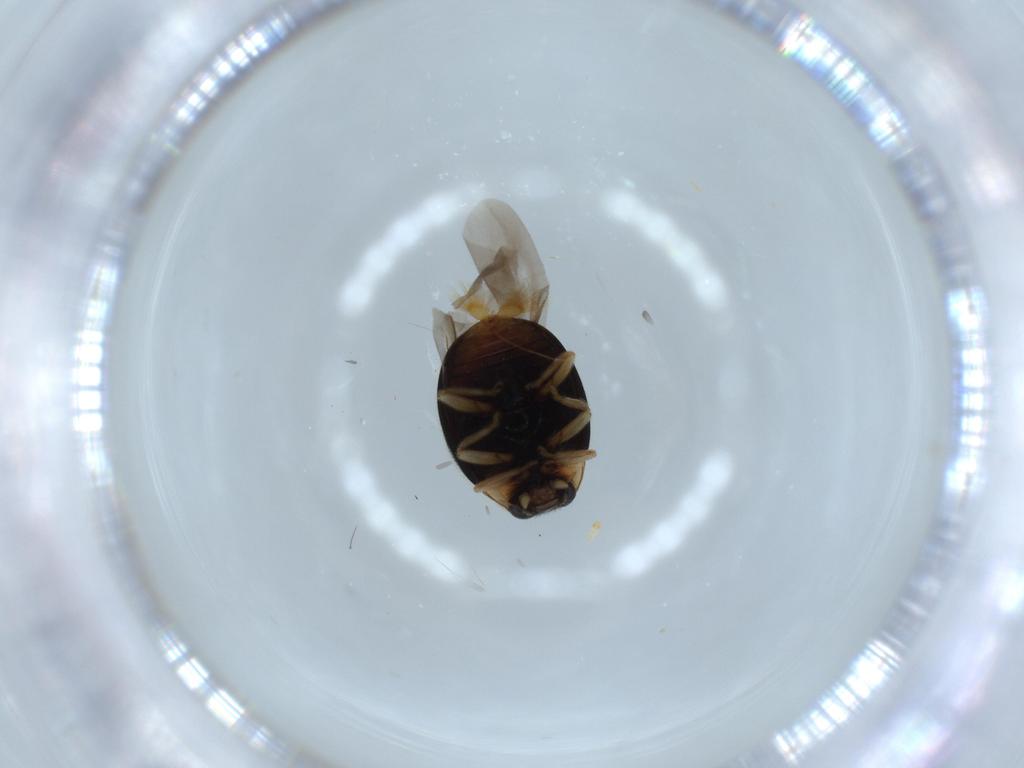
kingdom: Animalia
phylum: Arthropoda
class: Insecta
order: Coleoptera
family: Coccinellidae
